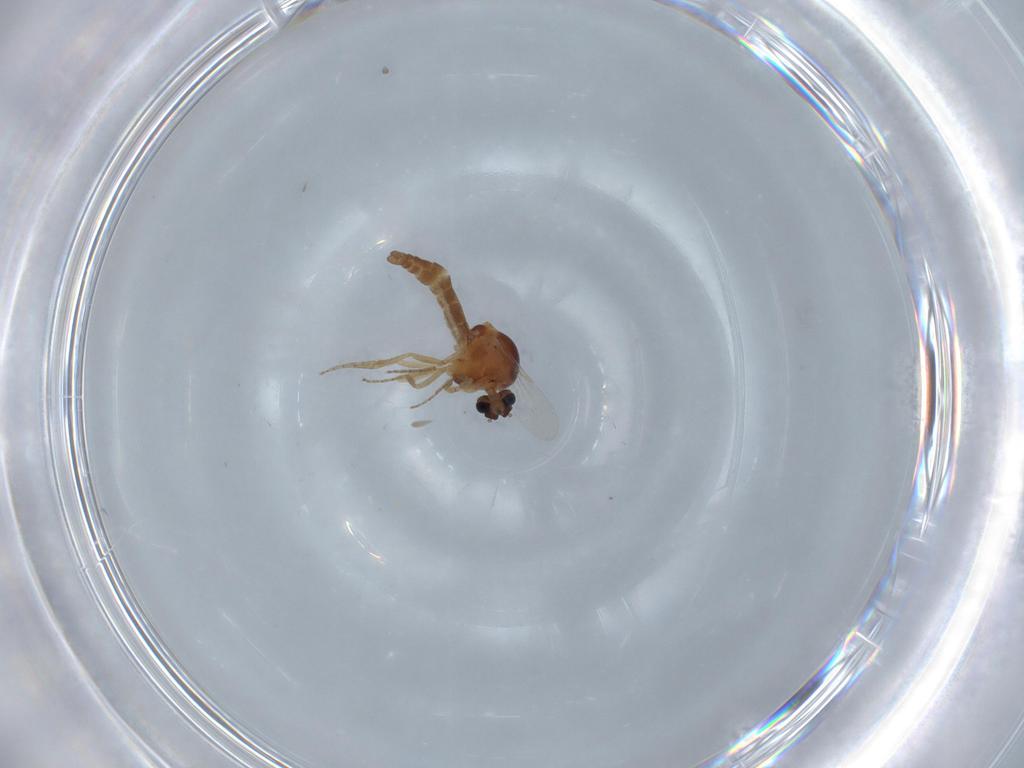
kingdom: Animalia
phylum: Arthropoda
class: Insecta
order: Diptera
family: Ceratopogonidae
